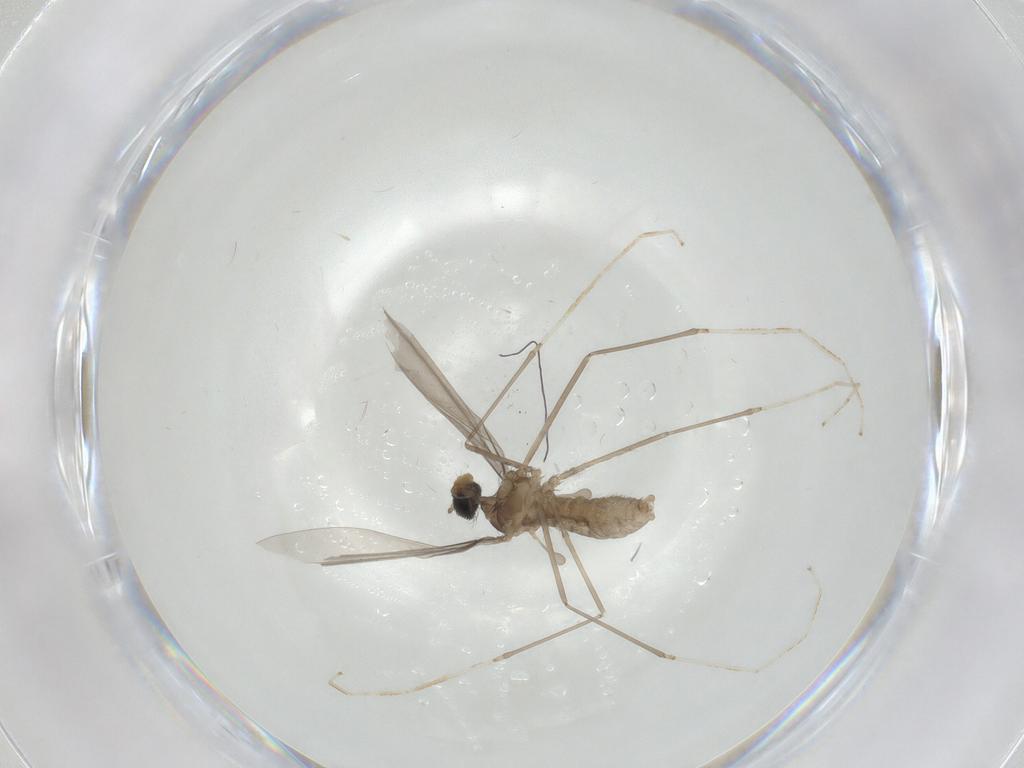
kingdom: Animalia
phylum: Arthropoda
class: Insecta
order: Diptera
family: Cecidomyiidae
